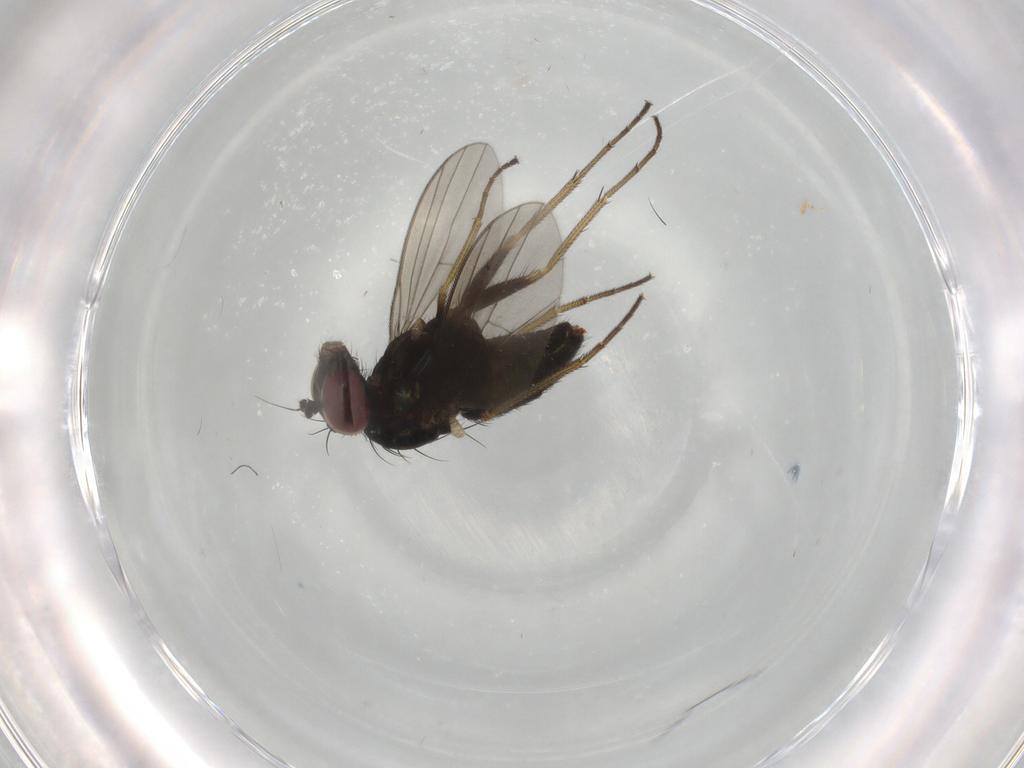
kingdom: Animalia
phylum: Arthropoda
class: Insecta
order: Diptera
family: Dolichopodidae
